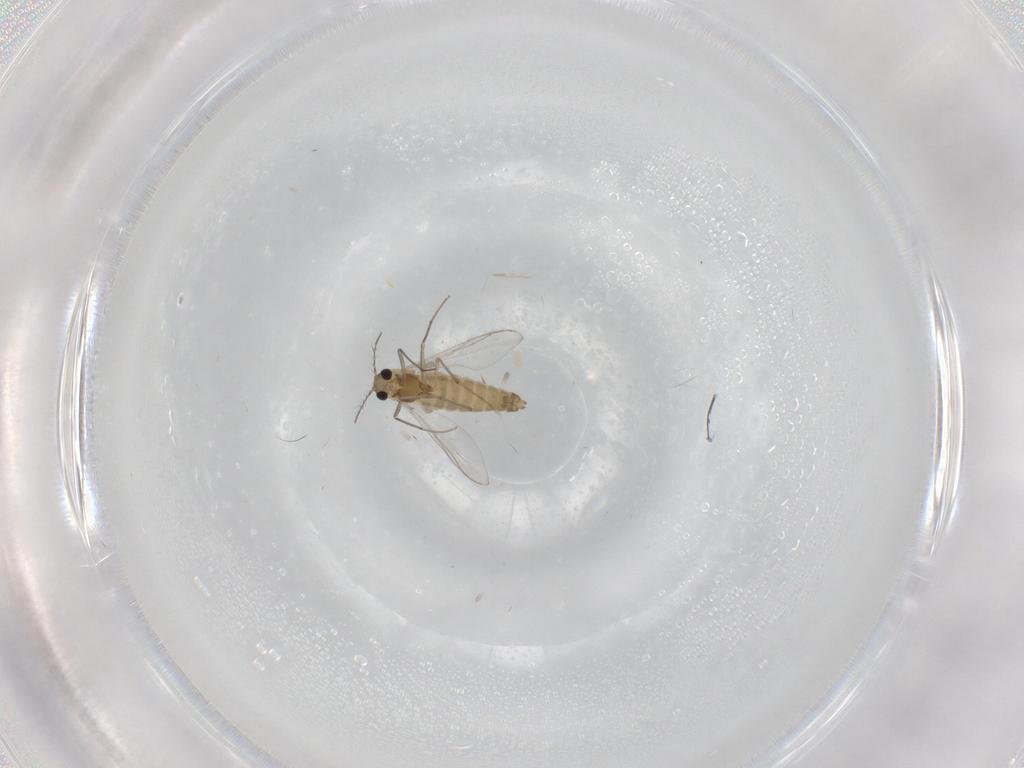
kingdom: Animalia
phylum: Arthropoda
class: Insecta
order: Diptera
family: Chironomidae
